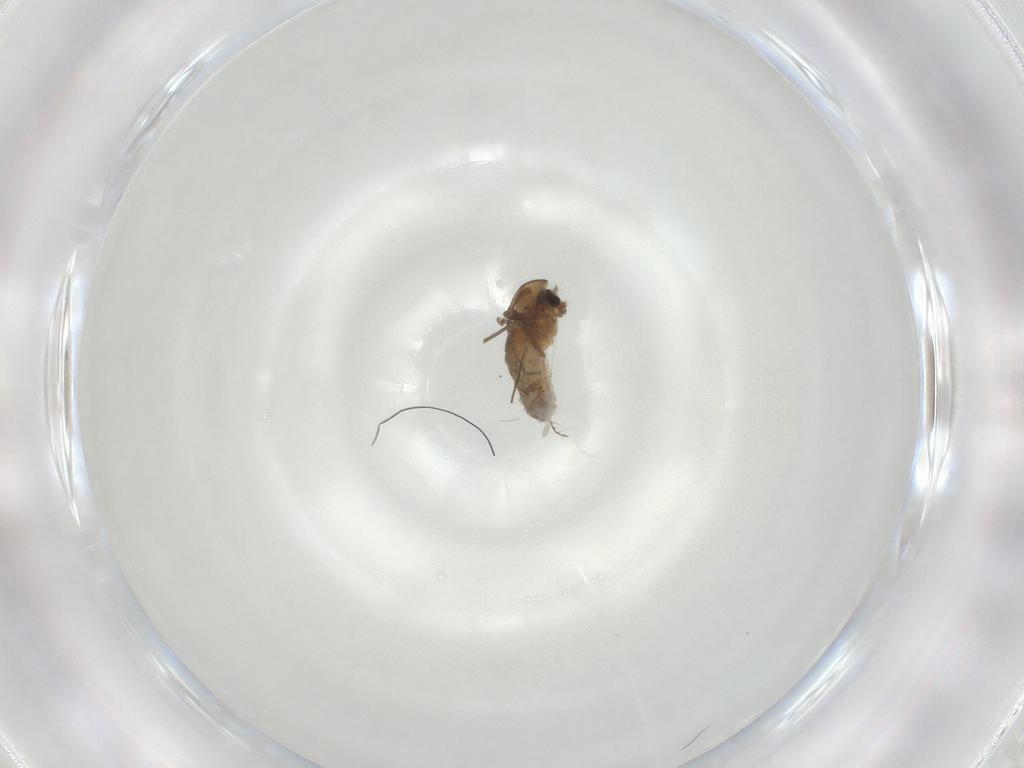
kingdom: Animalia
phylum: Arthropoda
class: Insecta
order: Diptera
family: Chironomidae
